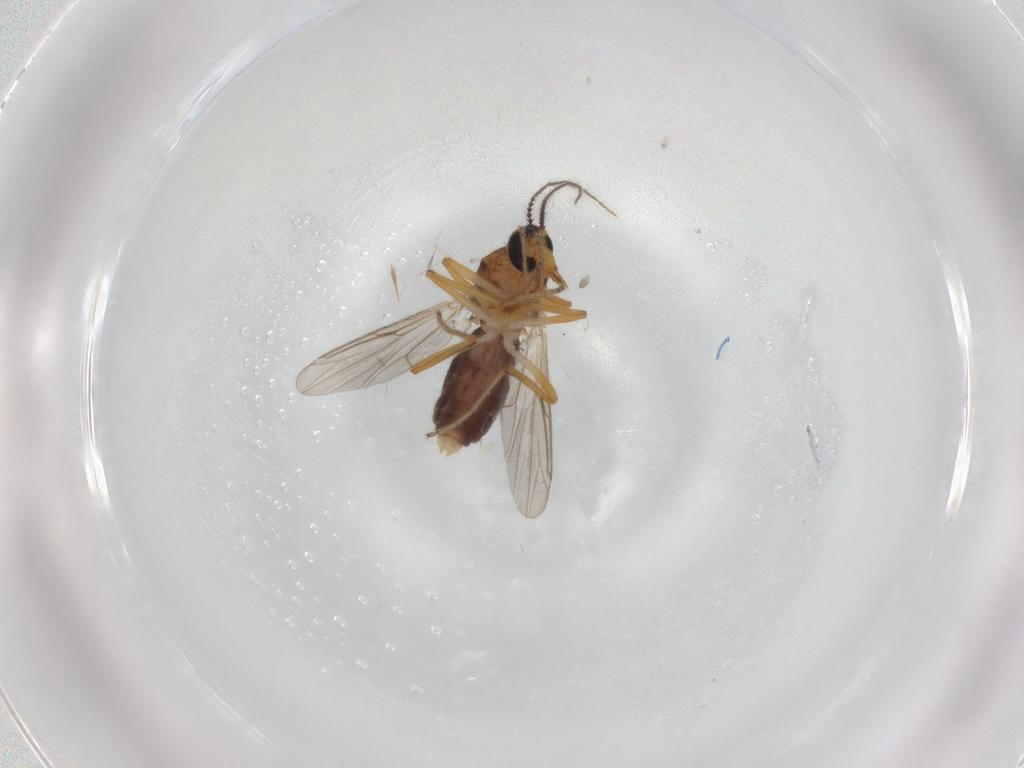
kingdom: Animalia
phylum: Arthropoda
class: Insecta
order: Diptera
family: Ceratopogonidae
